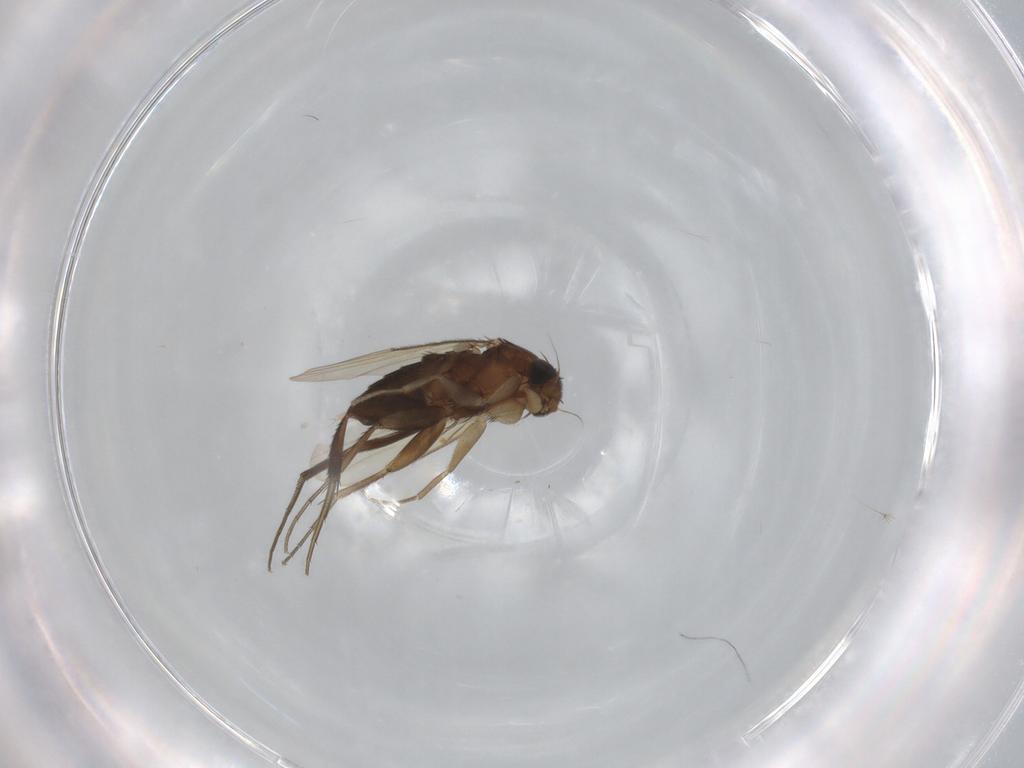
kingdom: Animalia
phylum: Arthropoda
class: Insecta
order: Diptera
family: Phoridae
